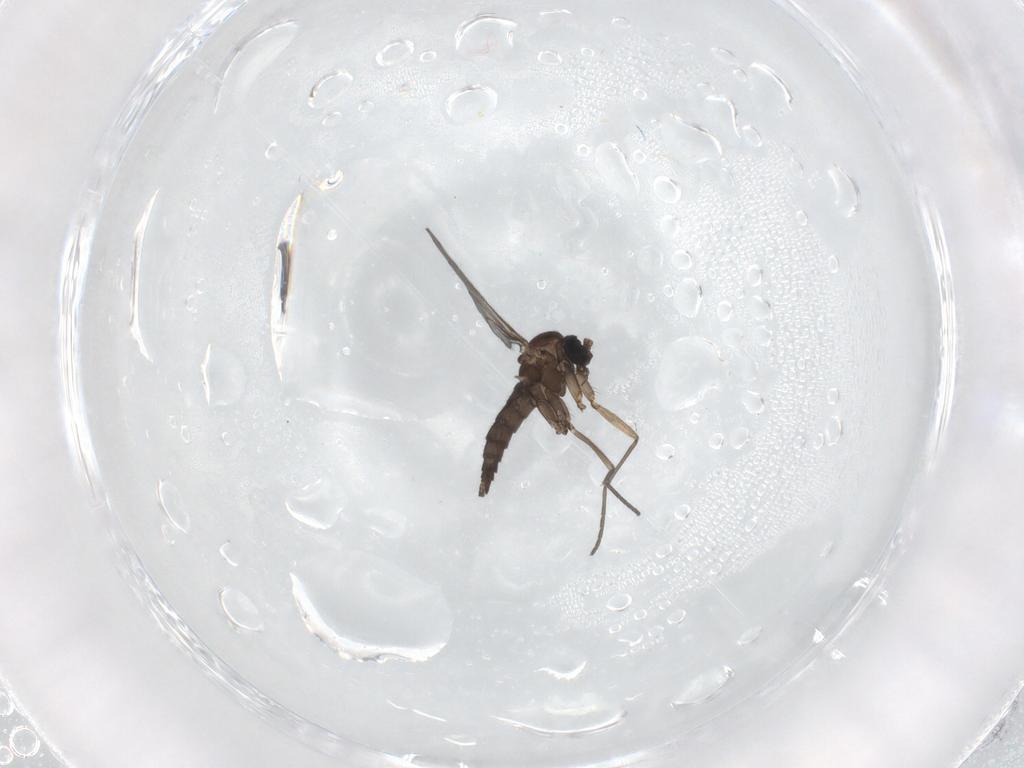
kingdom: Animalia
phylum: Arthropoda
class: Insecta
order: Diptera
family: Sciaridae
